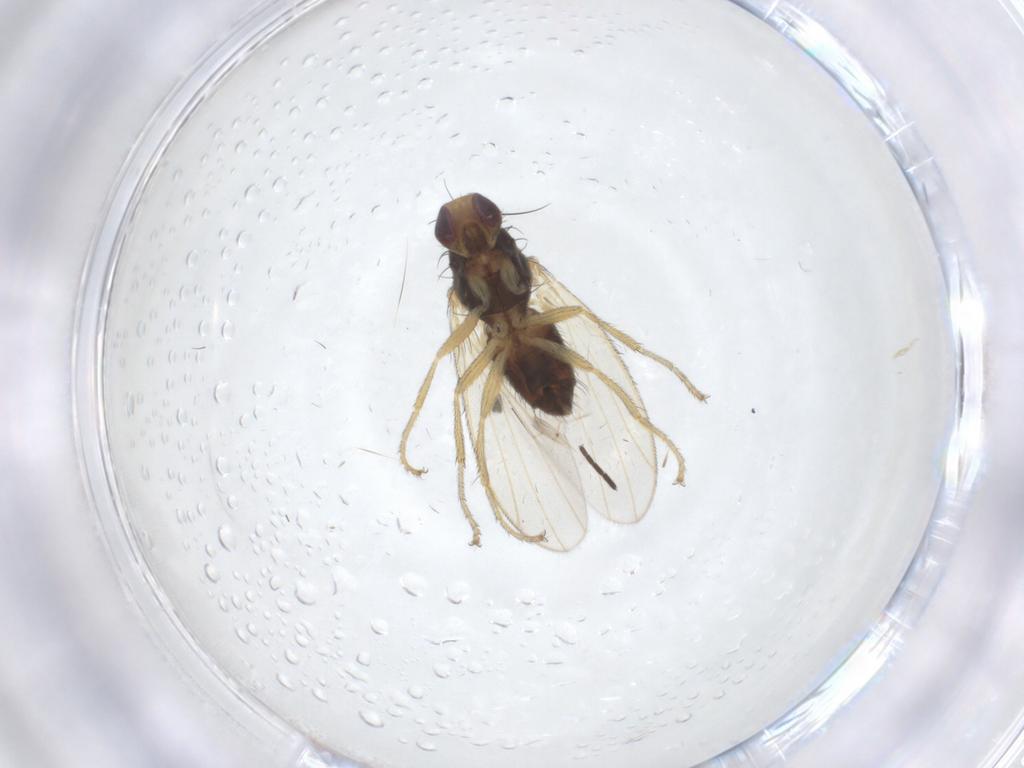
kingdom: Animalia
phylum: Arthropoda
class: Insecta
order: Diptera
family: Heleomyzidae
